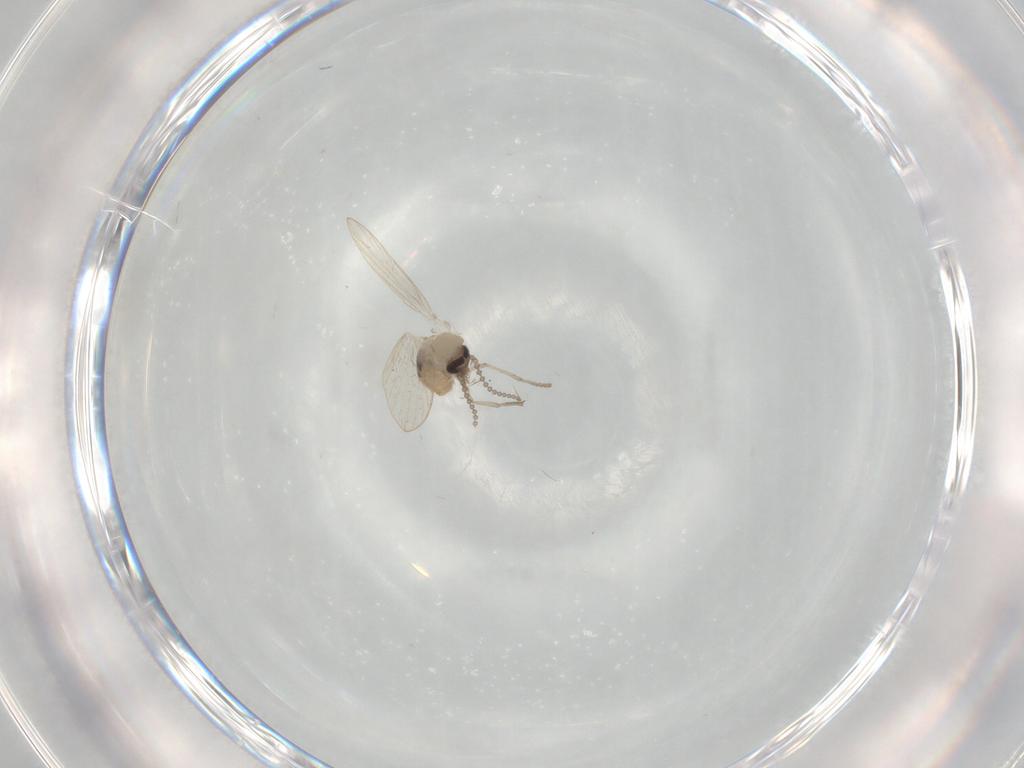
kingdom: Animalia
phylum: Arthropoda
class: Insecta
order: Diptera
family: Psychodidae
